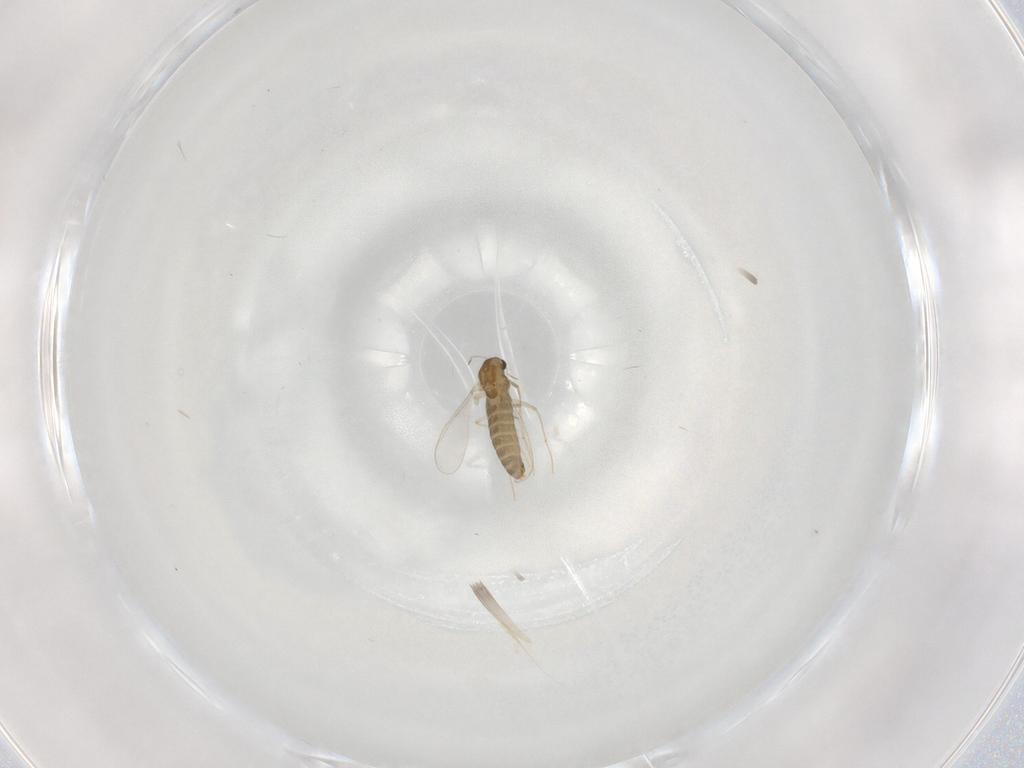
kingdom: Animalia
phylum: Arthropoda
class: Insecta
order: Diptera
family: Chironomidae
